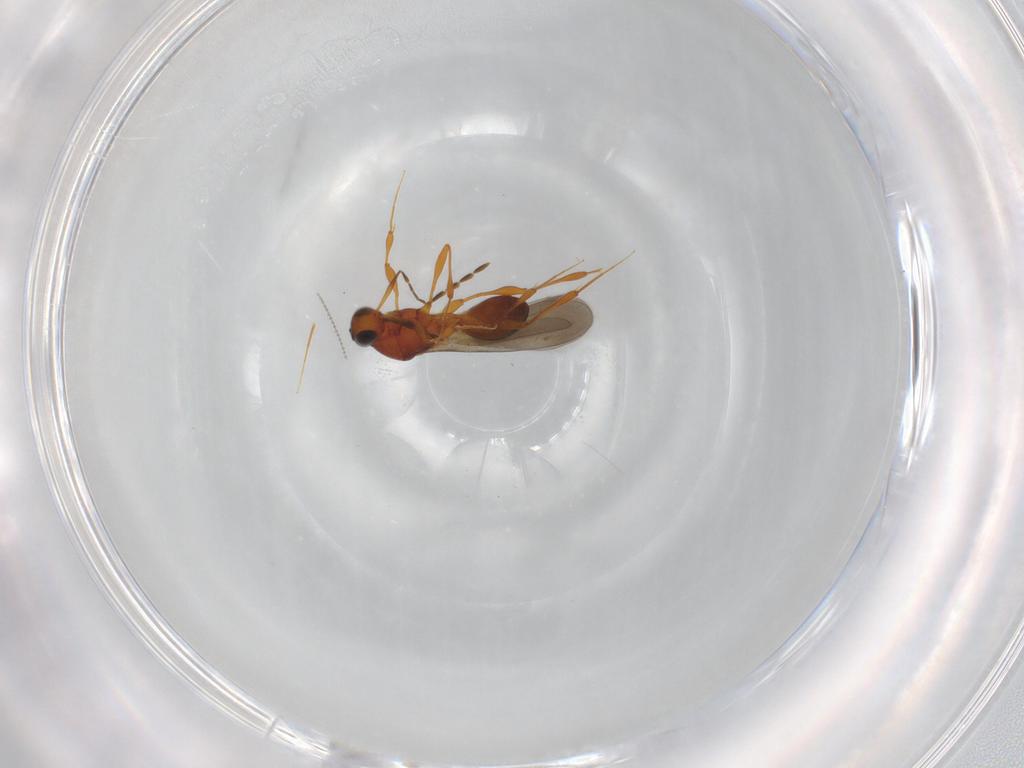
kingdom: Animalia
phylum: Arthropoda
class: Insecta
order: Hymenoptera
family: Platygastridae
